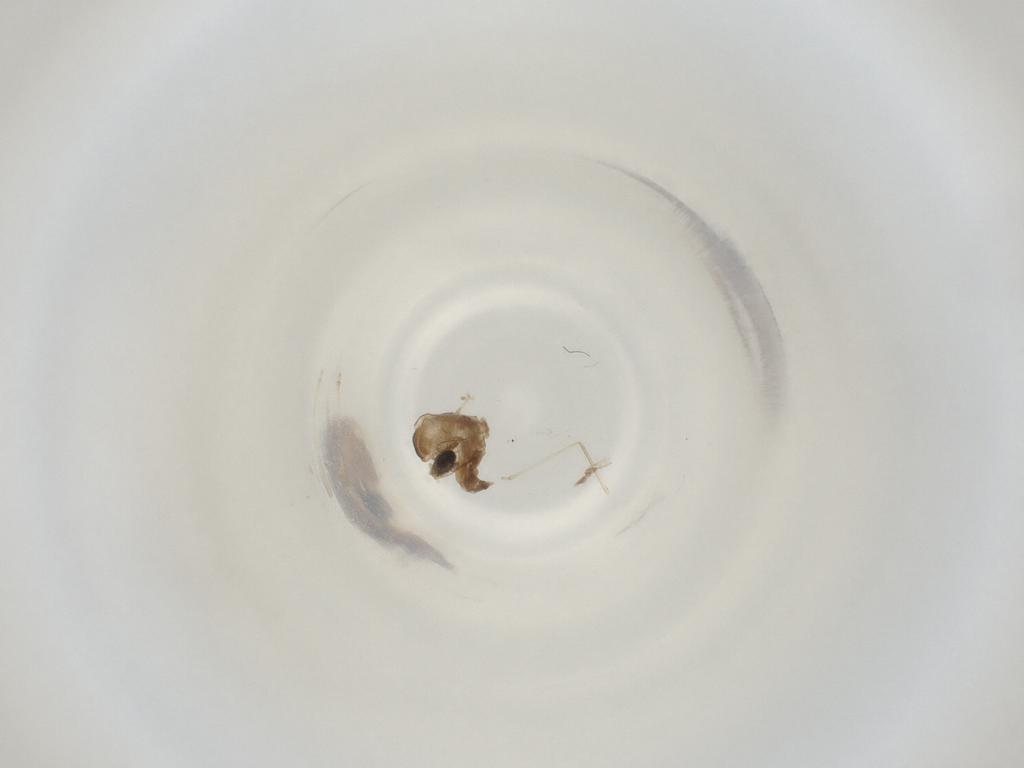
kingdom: Animalia
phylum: Arthropoda
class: Insecta
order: Diptera
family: Cecidomyiidae
